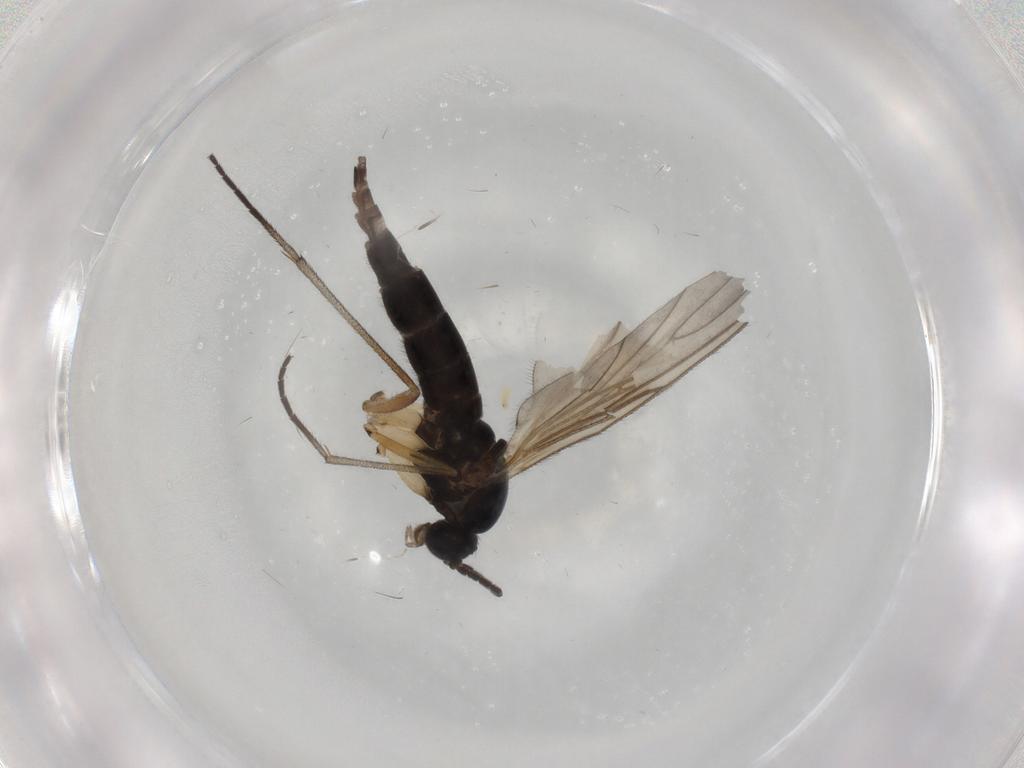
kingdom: Animalia
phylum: Arthropoda
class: Insecta
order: Diptera
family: Sciaridae
